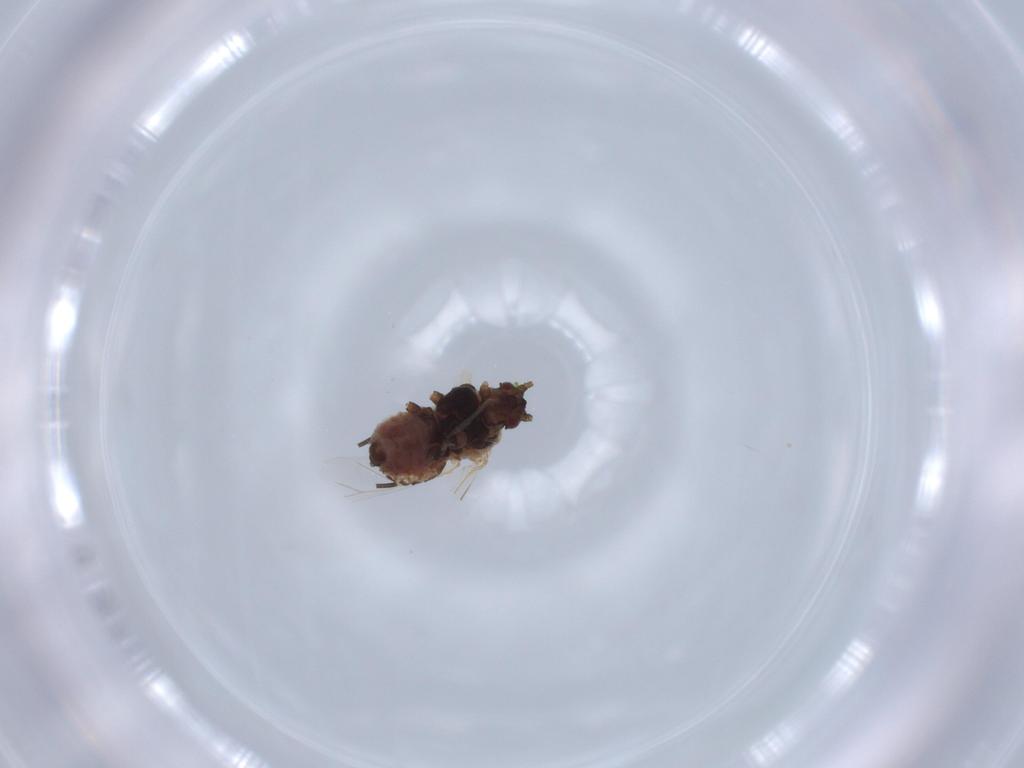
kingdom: Animalia
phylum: Arthropoda
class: Insecta
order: Hemiptera
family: Aphididae
